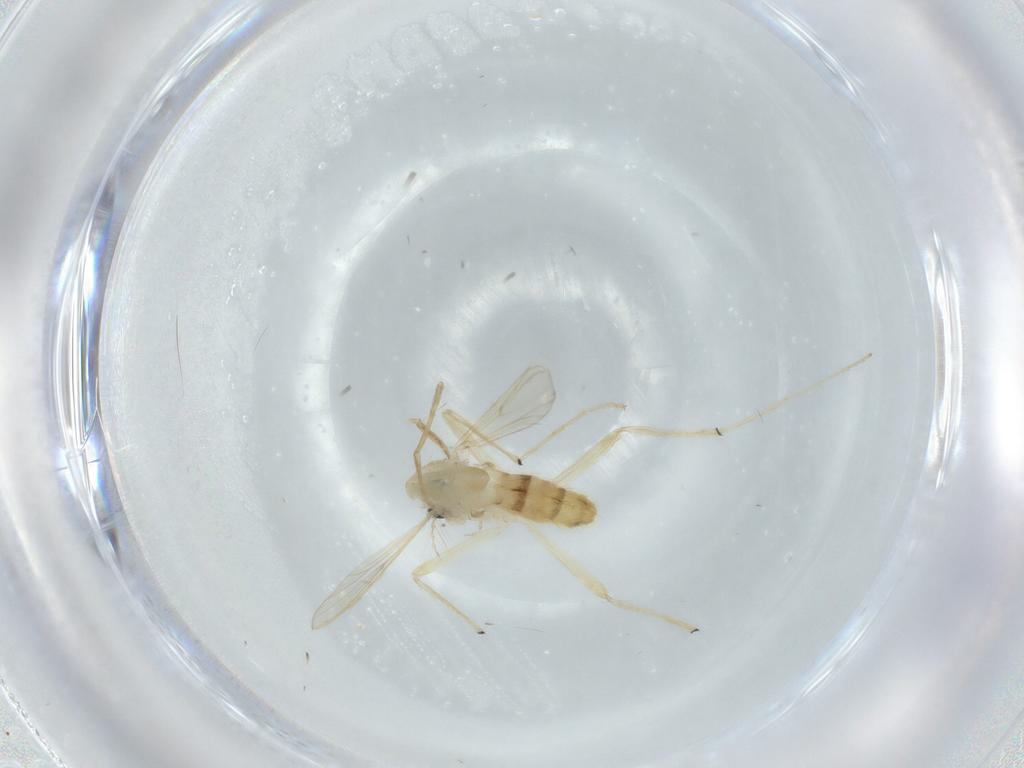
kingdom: Animalia
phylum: Arthropoda
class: Insecta
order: Diptera
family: Chironomidae
